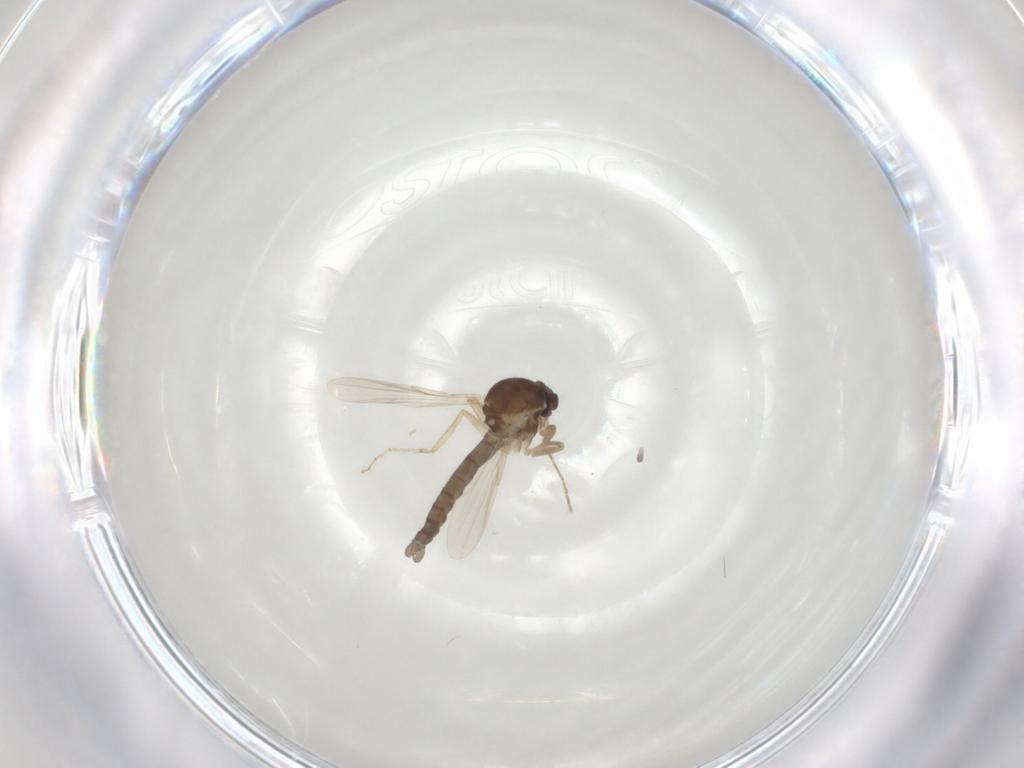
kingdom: Animalia
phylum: Arthropoda
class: Insecta
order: Diptera
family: Ceratopogonidae
